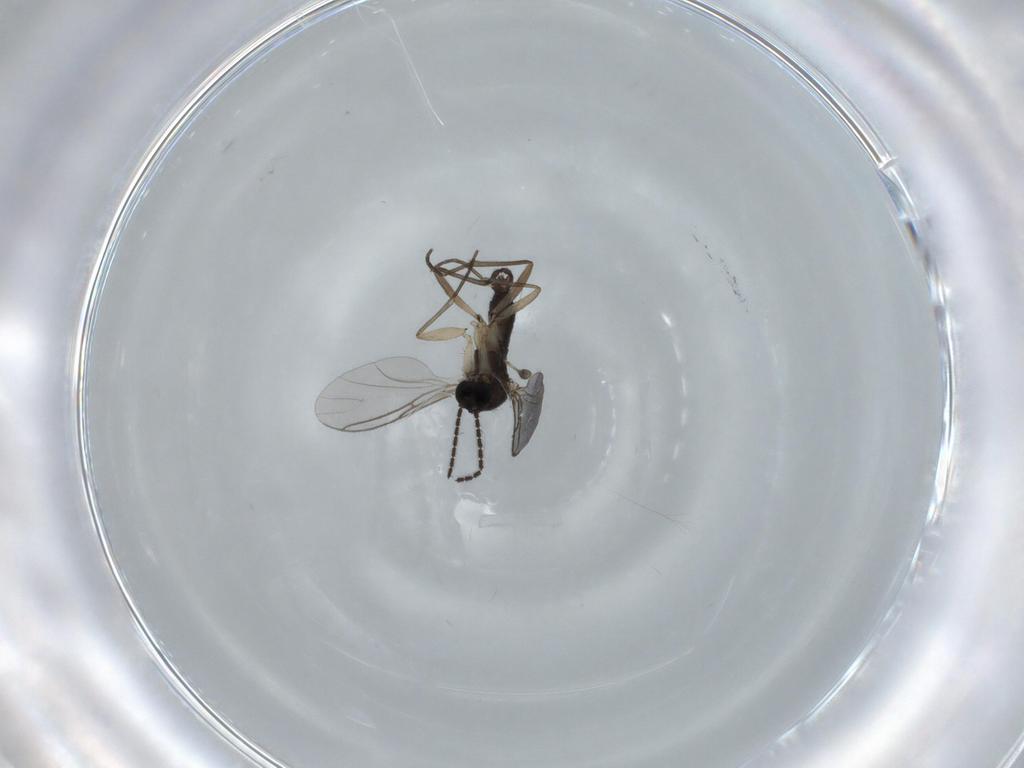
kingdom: Animalia
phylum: Arthropoda
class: Insecta
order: Diptera
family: Sciaridae
